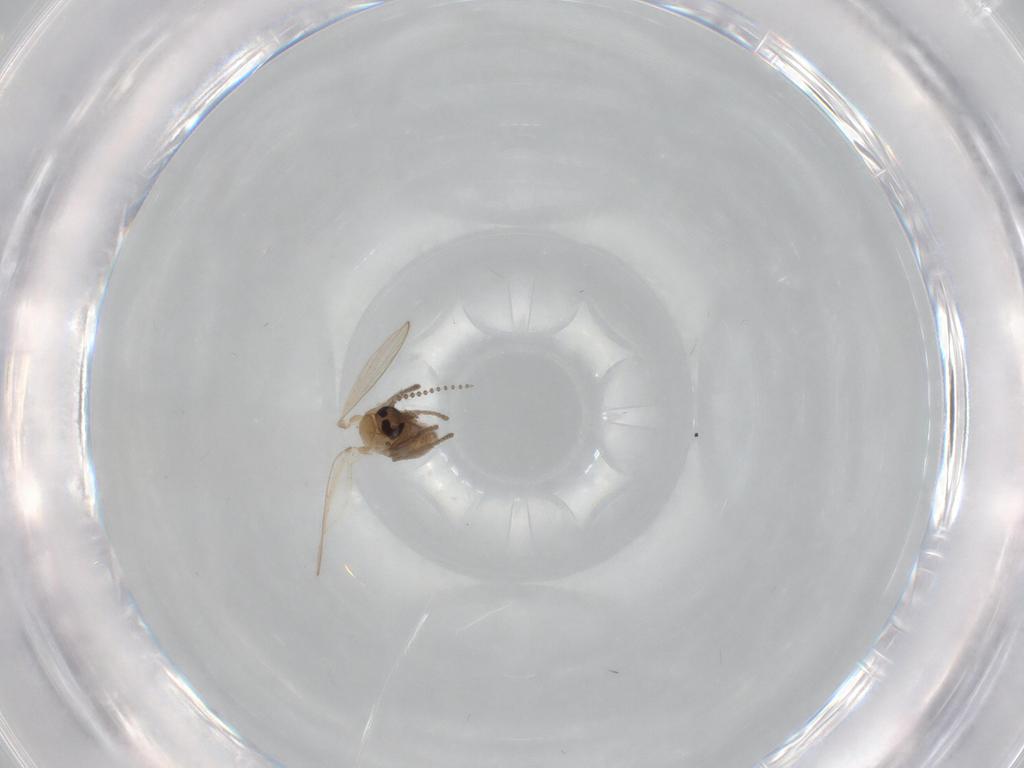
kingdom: Animalia
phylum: Arthropoda
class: Insecta
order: Diptera
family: Psychodidae
